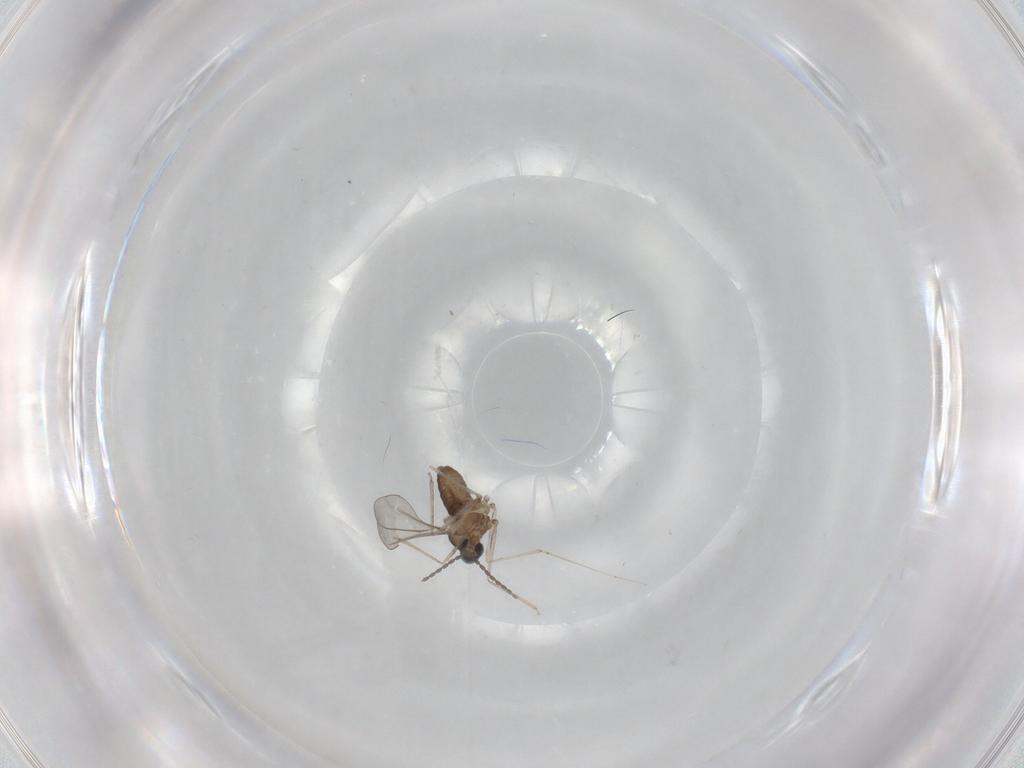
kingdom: Animalia
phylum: Arthropoda
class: Insecta
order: Diptera
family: Cecidomyiidae
